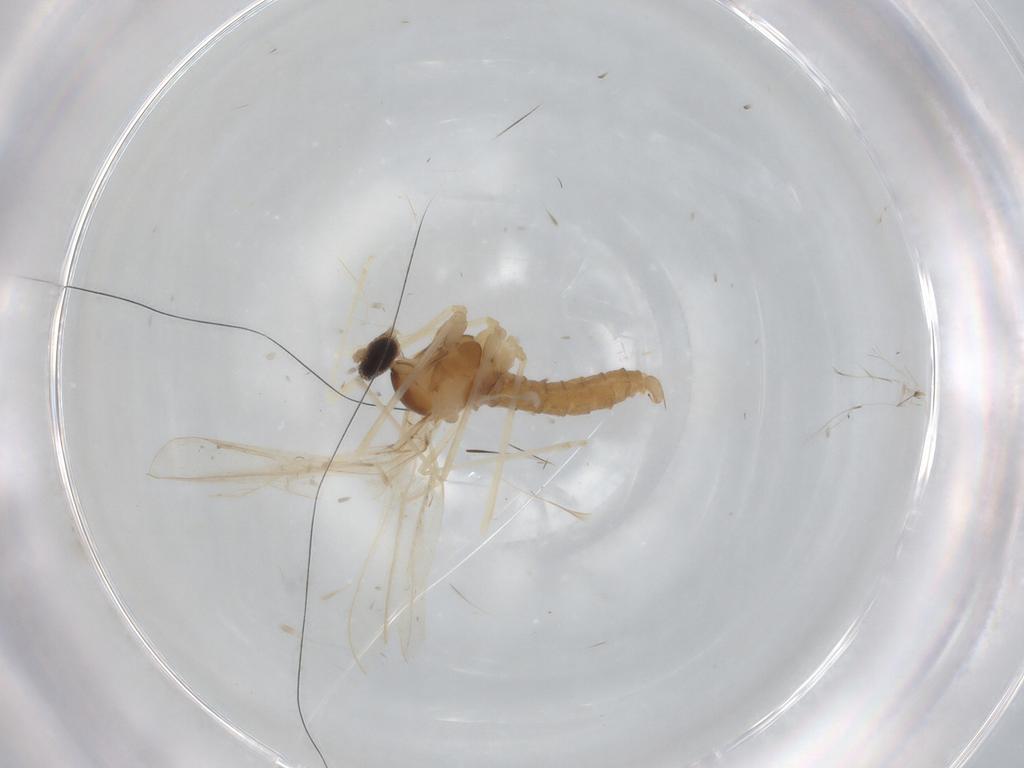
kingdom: Animalia
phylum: Arthropoda
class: Insecta
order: Diptera
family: Cecidomyiidae
